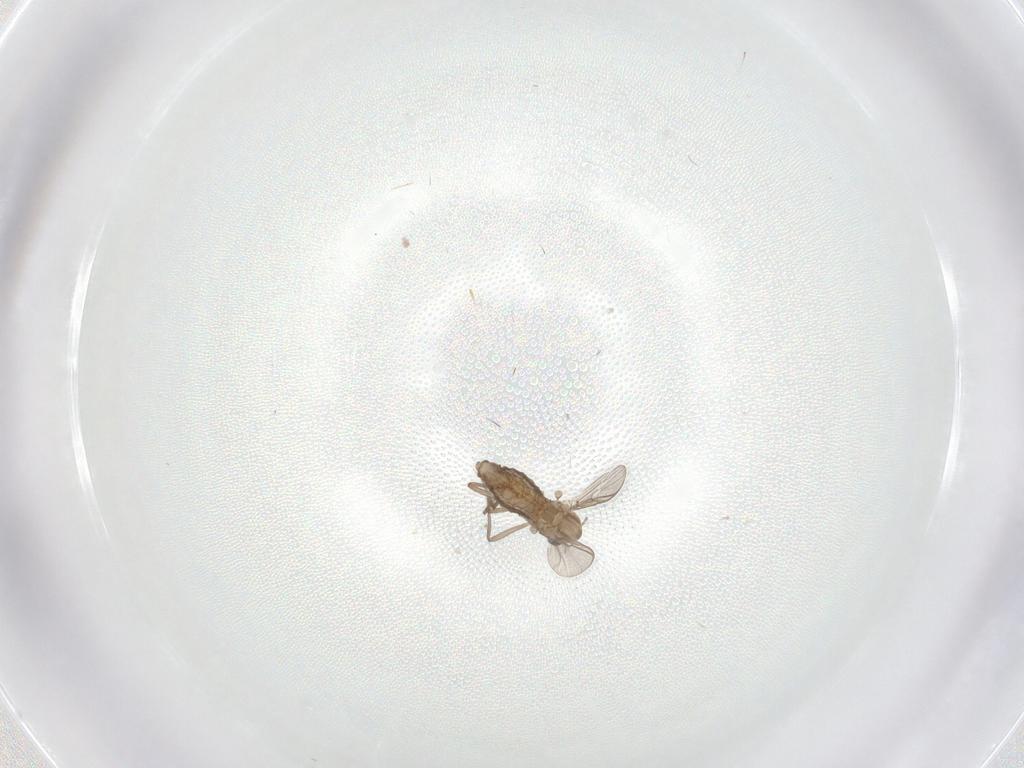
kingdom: Animalia
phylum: Arthropoda
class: Insecta
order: Diptera
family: Chironomidae
